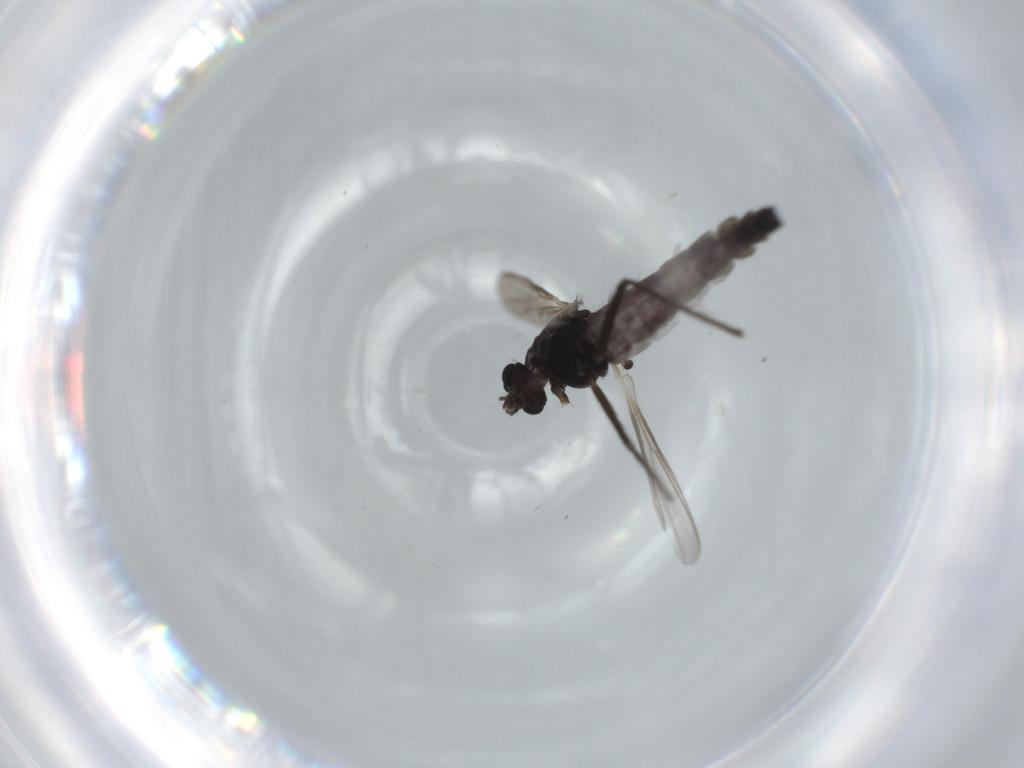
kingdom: Animalia
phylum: Arthropoda
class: Insecta
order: Diptera
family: Chironomidae
